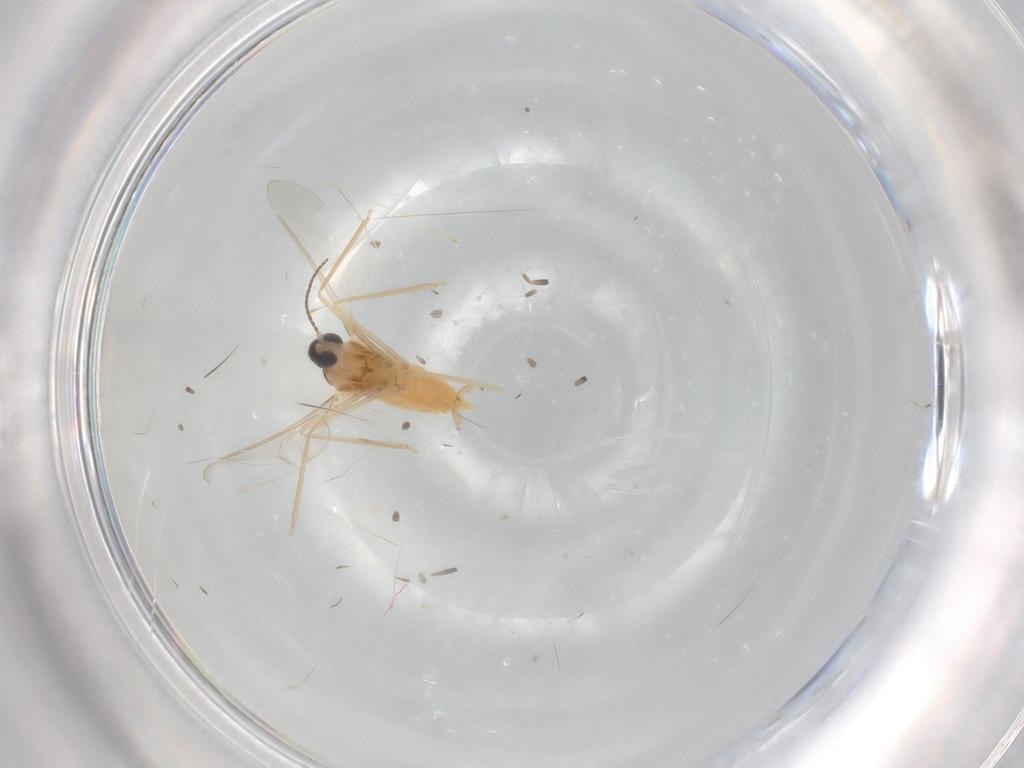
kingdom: Animalia
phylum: Arthropoda
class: Insecta
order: Diptera
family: Cecidomyiidae
